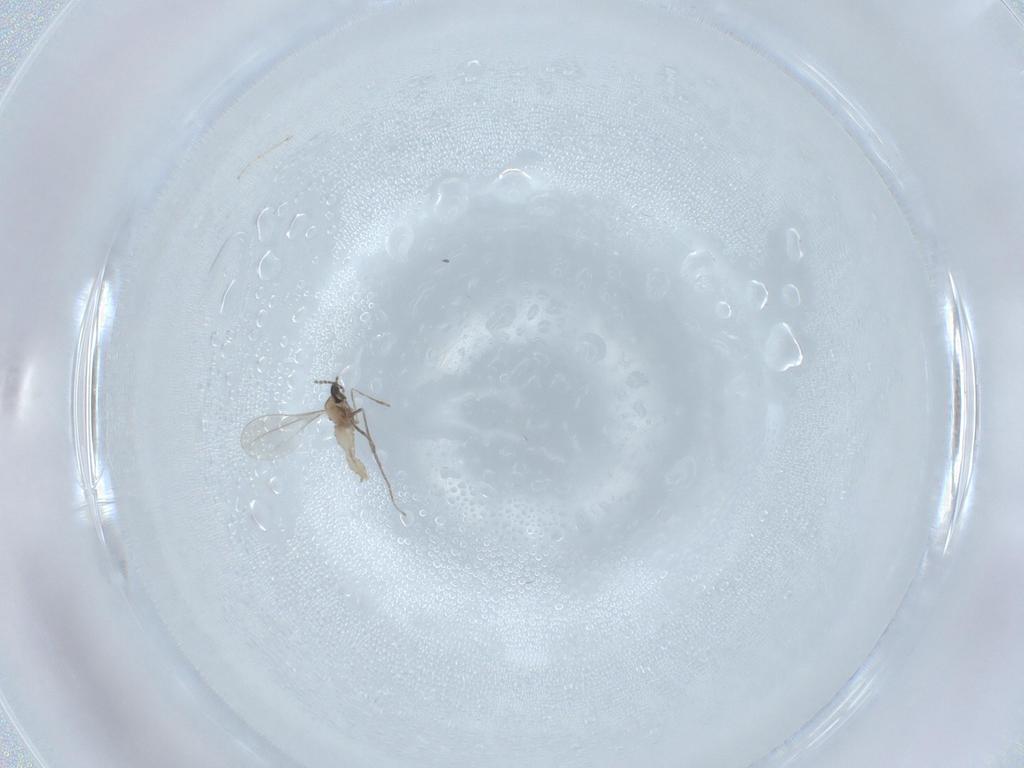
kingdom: Animalia
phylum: Arthropoda
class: Insecta
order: Diptera
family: Cecidomyiidae
